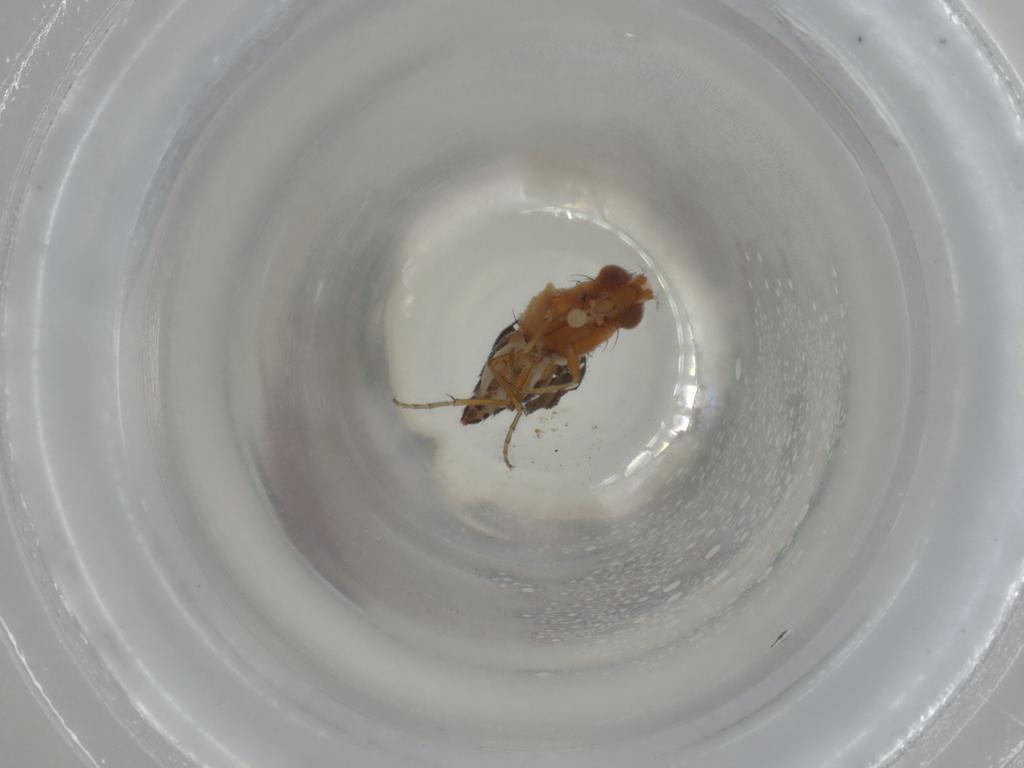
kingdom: Animalia
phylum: Arthropoda
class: Insecta
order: Diptera
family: Ephydridae
